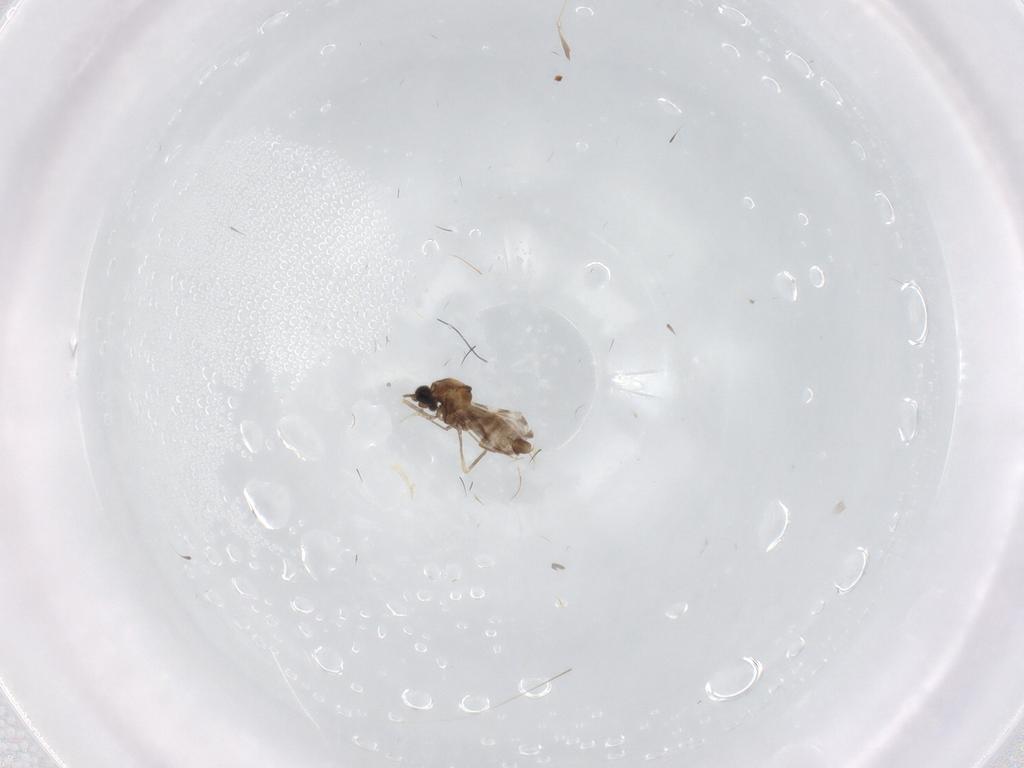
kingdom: Animalia
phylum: Arthropoda
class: Insecta
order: Diptera
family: Ceratopogonidae
